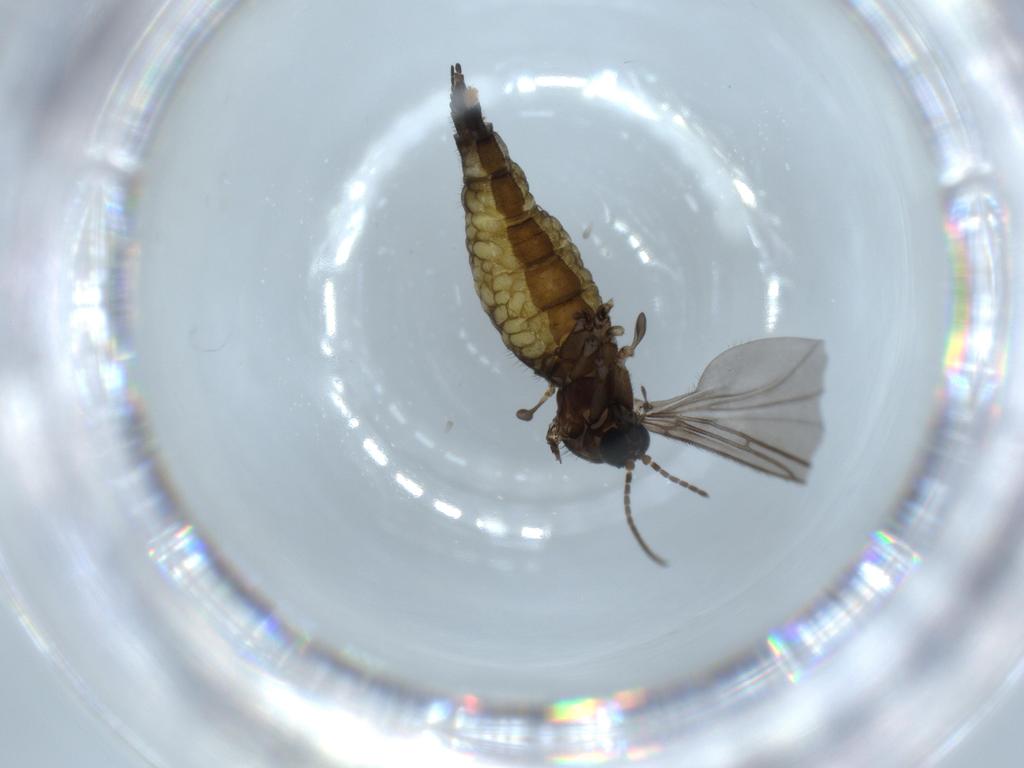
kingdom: Animalia
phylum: Arthropoda
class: Insecta
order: Diptera
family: Sciaridae
